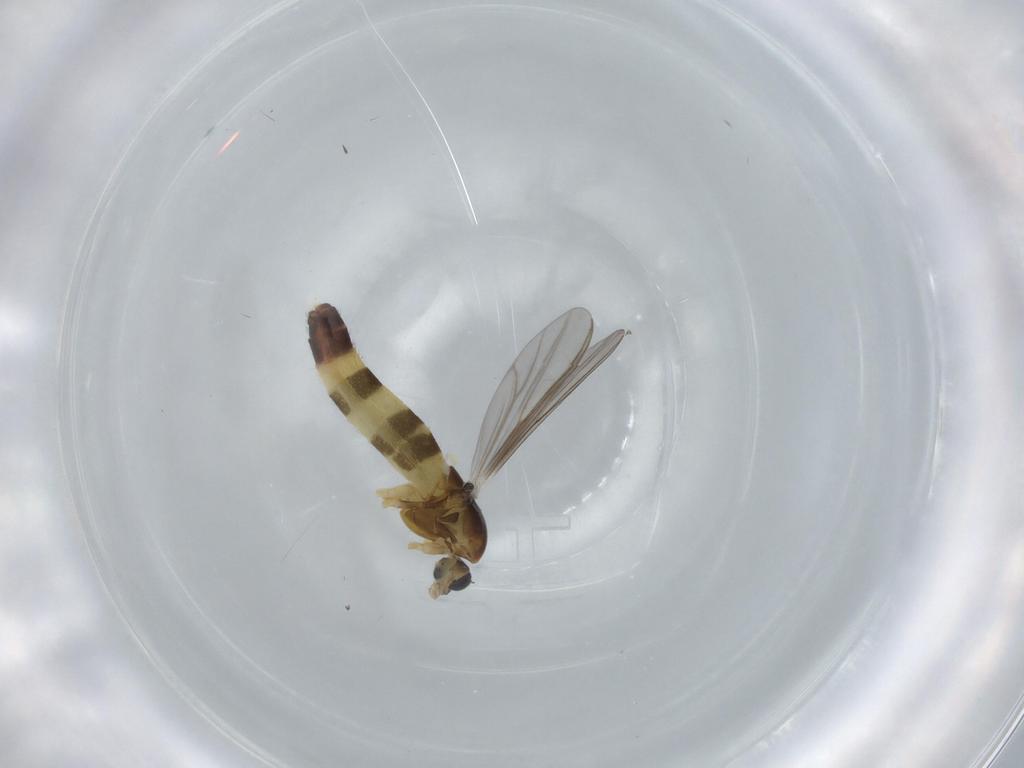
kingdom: Animalia
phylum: Arthropoda
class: Insecta
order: Diptera
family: Chironomidae
